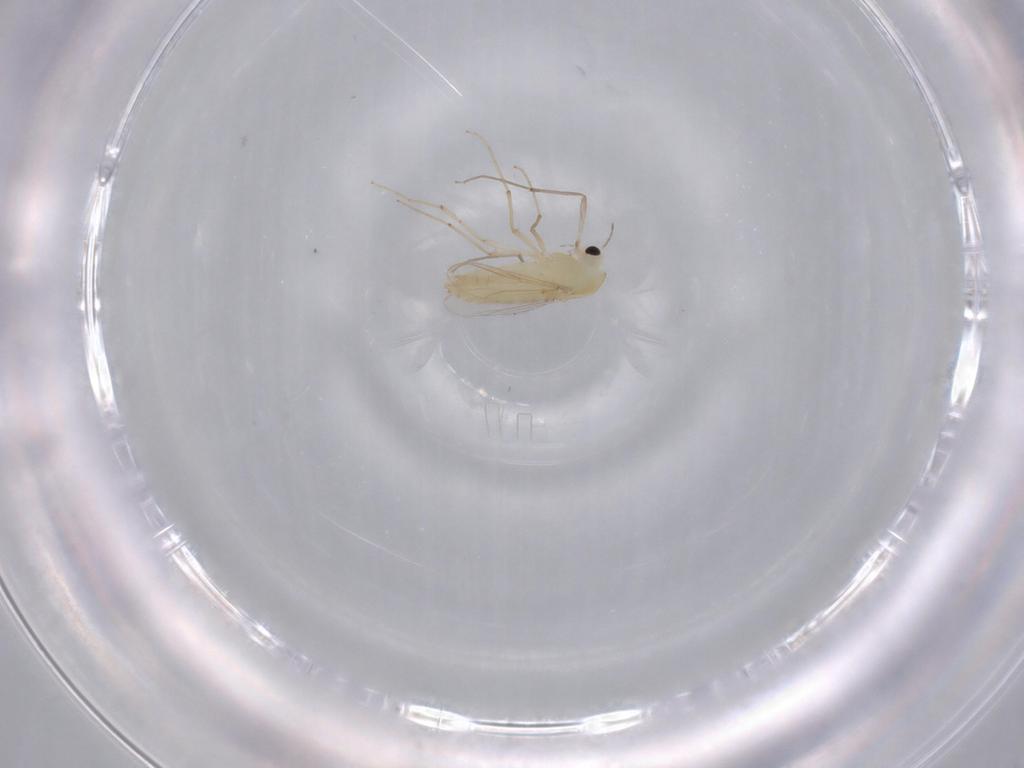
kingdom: Animalia
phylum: Arthropoda
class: Insecta
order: Diptera
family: Chironomidae
